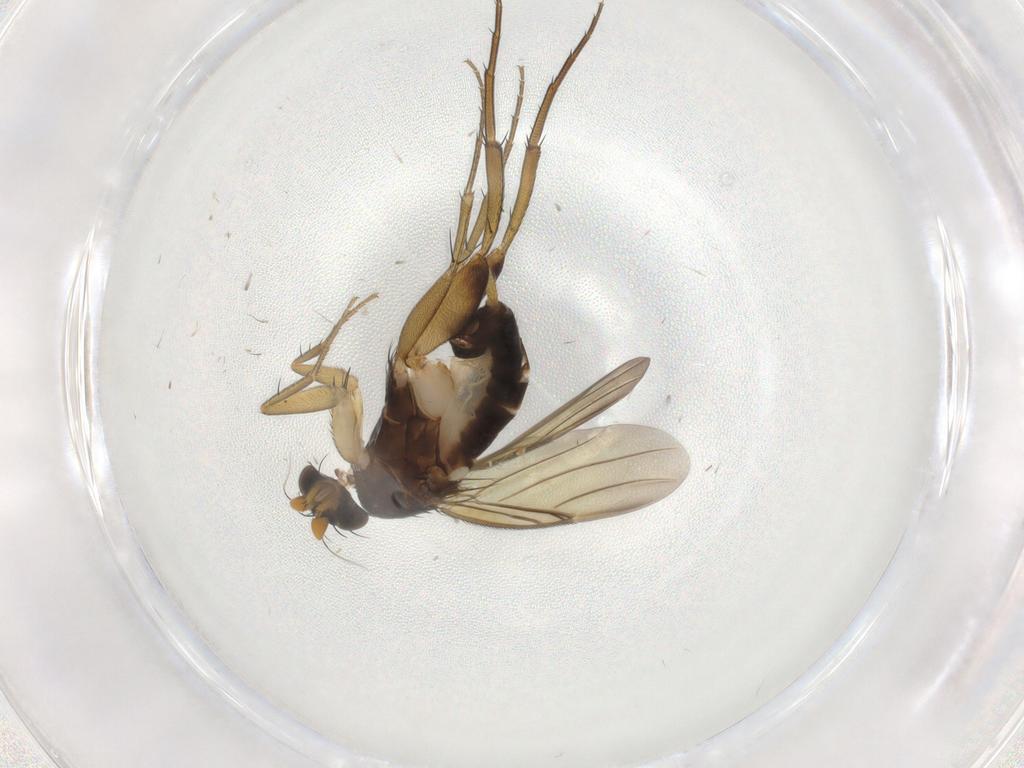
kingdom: Animalia
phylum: Arthropoda
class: Insecta
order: Diptera
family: Phoridae
